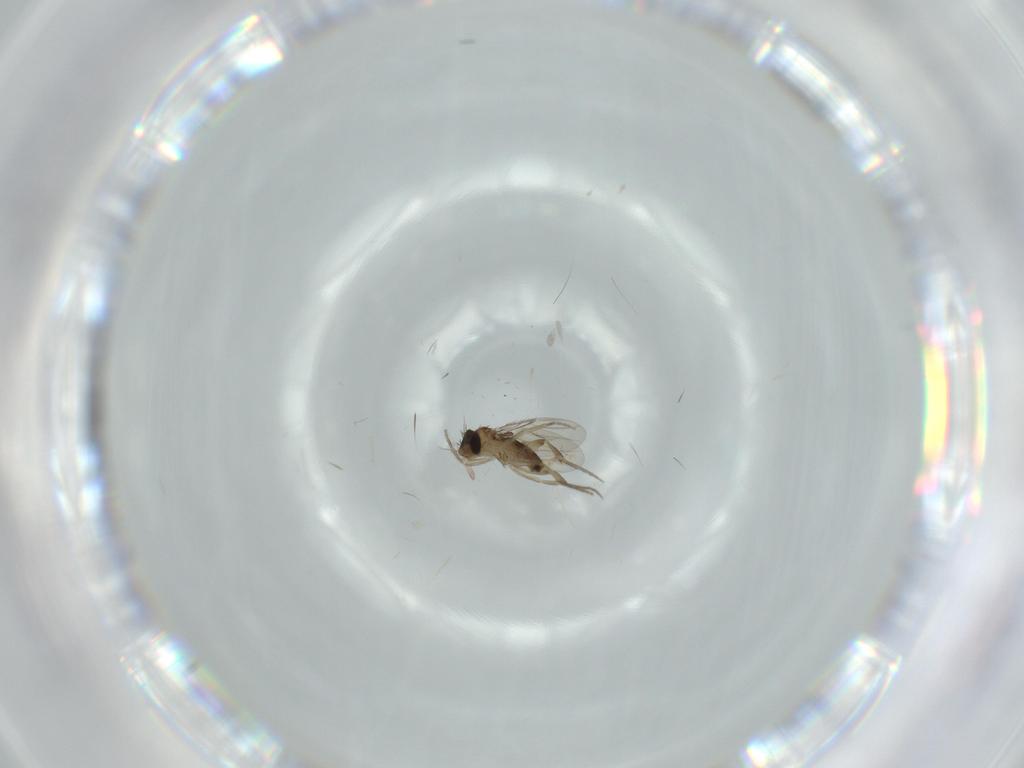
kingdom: Animalia
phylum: Arthropoda
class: Insecta
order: Diptera
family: Phoridae
